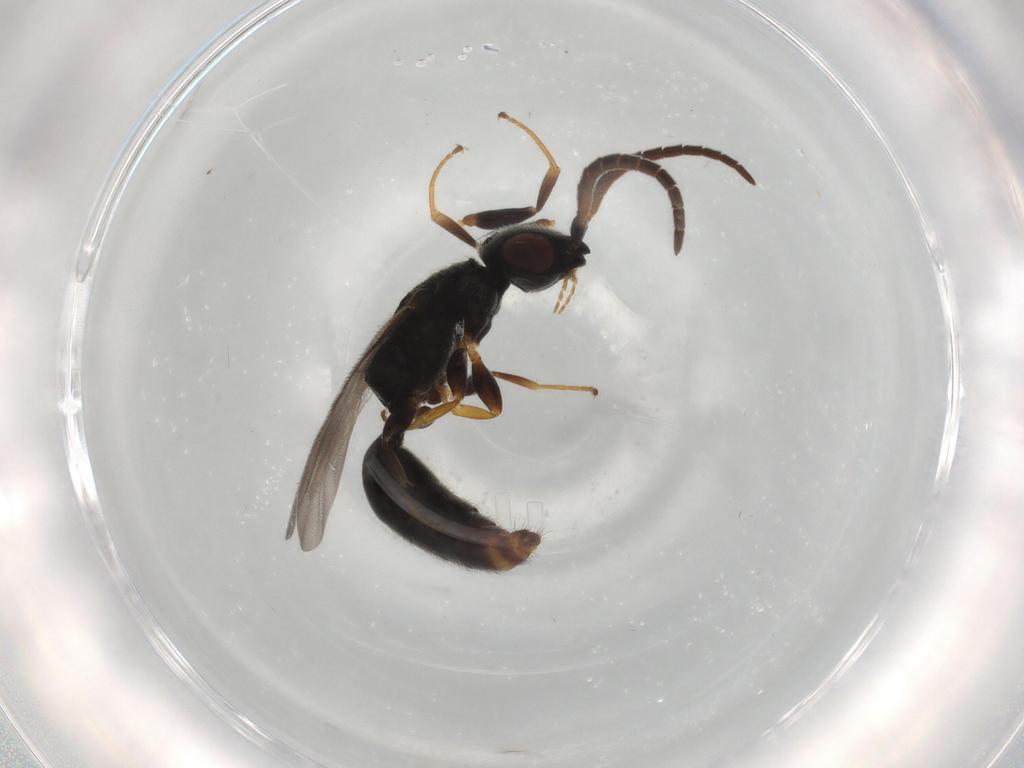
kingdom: Animalia
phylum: Arthropoda
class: Insecta
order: Hymenoptera
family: Bethylidae
